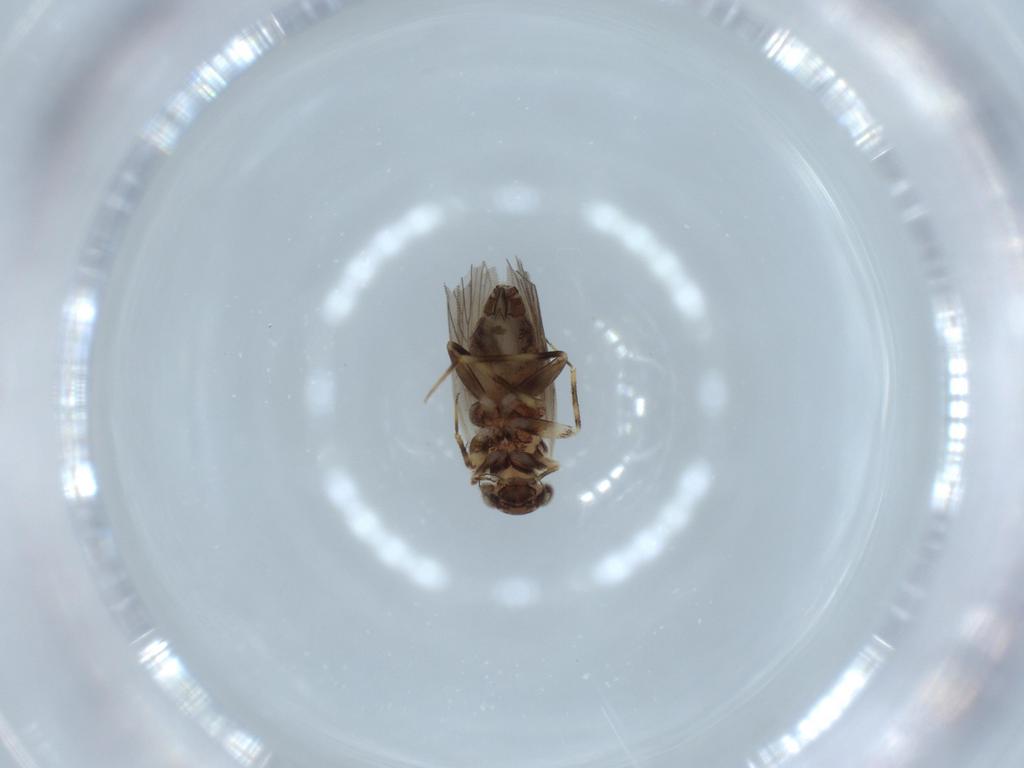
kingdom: Animalia
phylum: Arthropoda
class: Insecta
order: Psocodea
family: Lepidopsocidae
